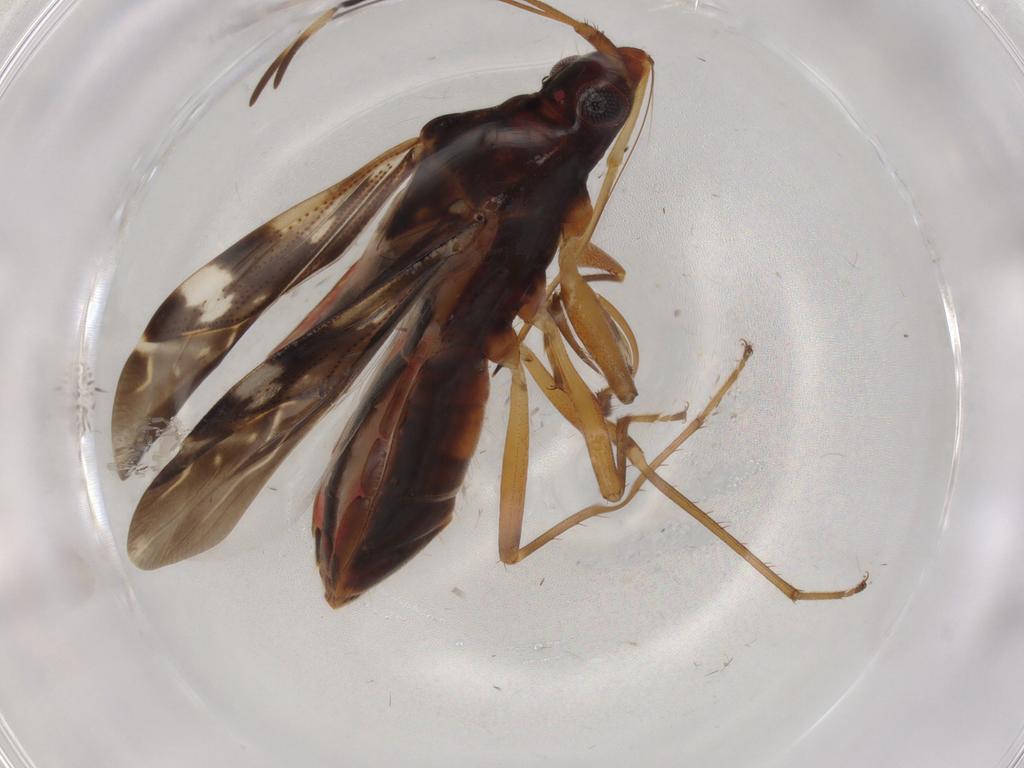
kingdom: Animalia
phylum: Arthropoda
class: Insecta
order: Hemiptera
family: Rhyparochromidae
